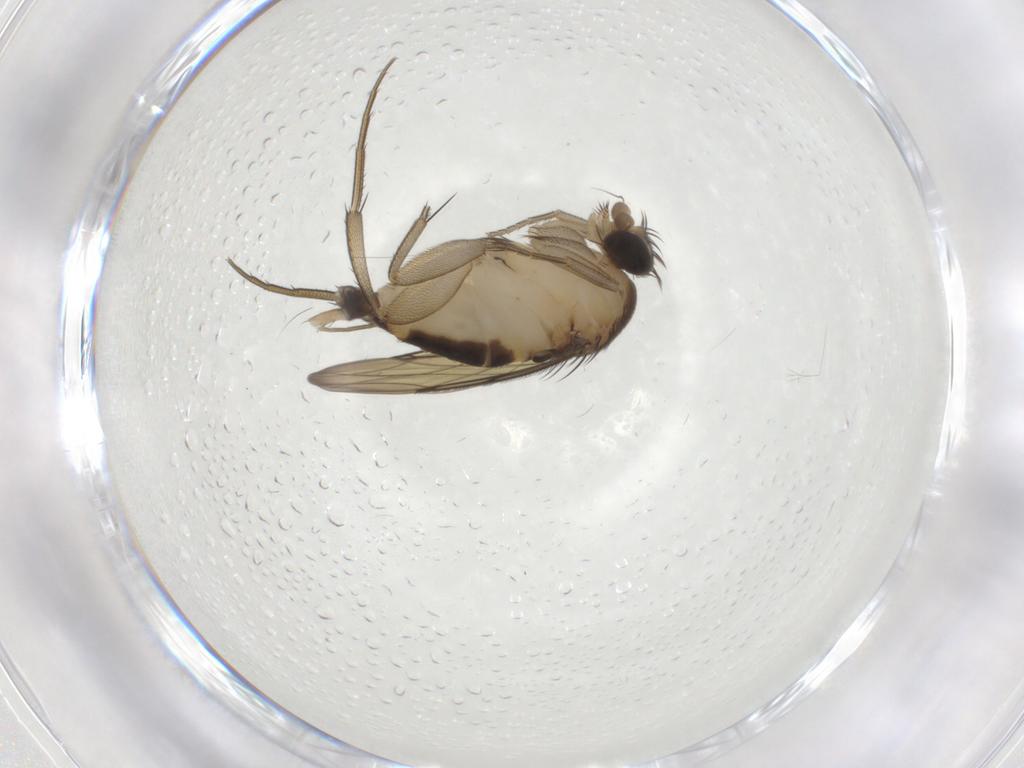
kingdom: Animalia
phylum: Arthropoda
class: Insecta
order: Diptera
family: Phoridae
